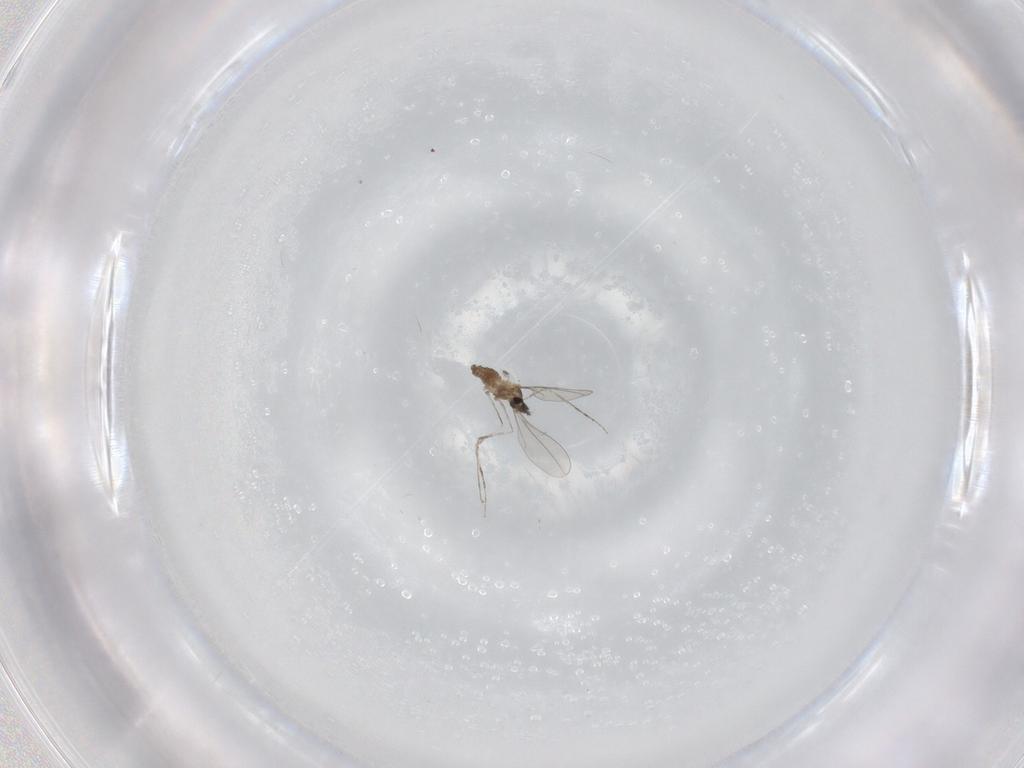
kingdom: Animalia
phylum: Arthropoda
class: Insecta
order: Diptera
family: Cecidomyiidae
